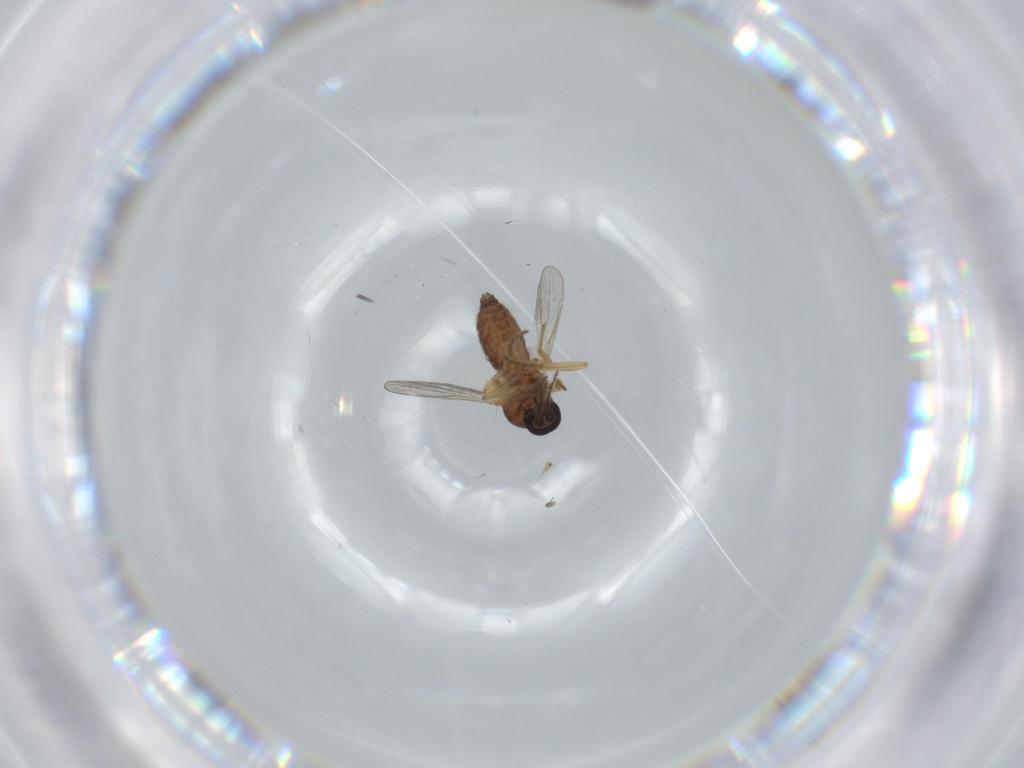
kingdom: Animalia
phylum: Arthropoda
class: Insecta
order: Diptera
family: Ceratopogonidae
